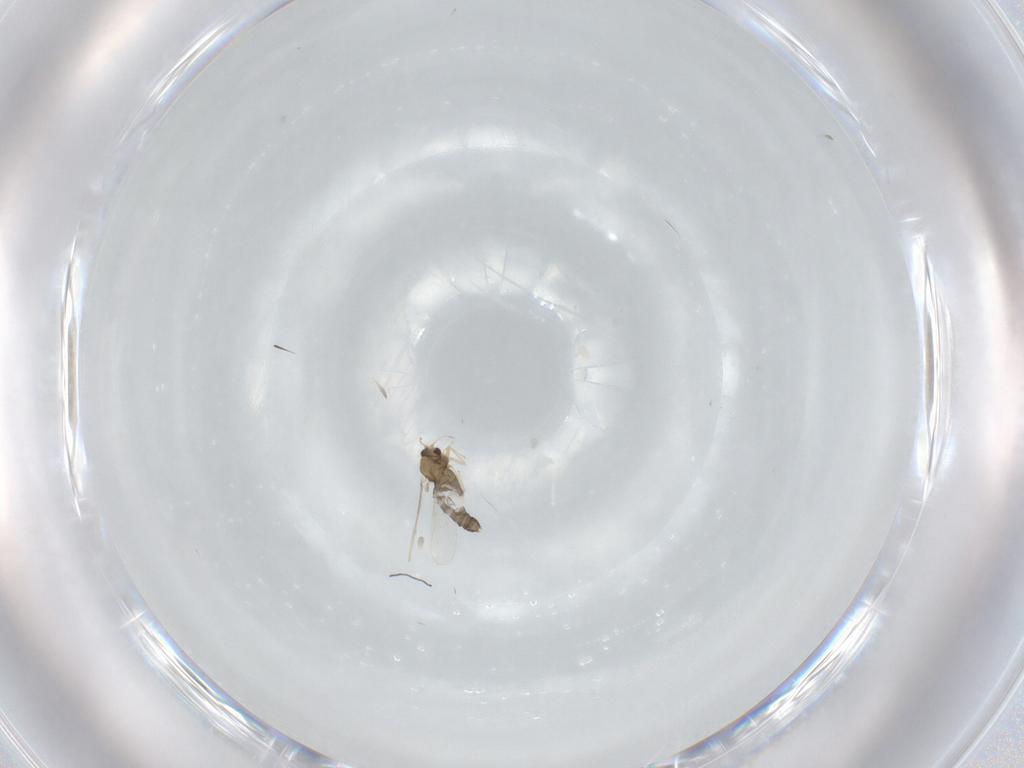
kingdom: Animalia
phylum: Arthropoda
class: Insecta
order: Diptera
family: Chironomidae
